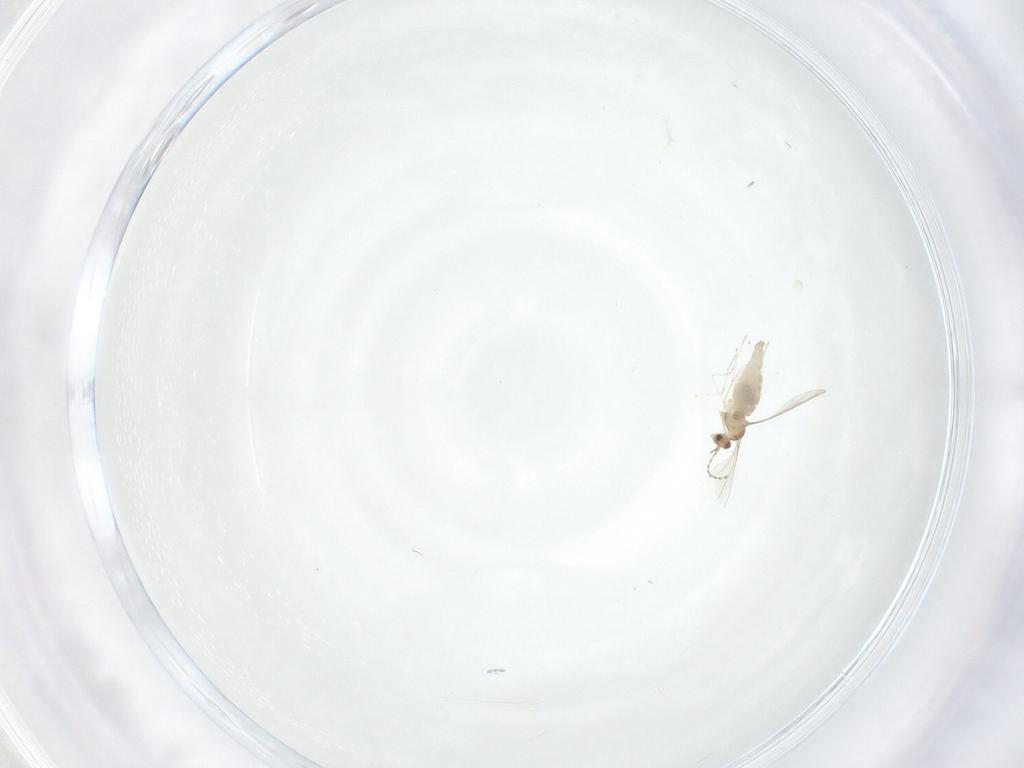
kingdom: Animalia
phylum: Arthropoda
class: Insecta
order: Diptera
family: Cecidomyiidae
